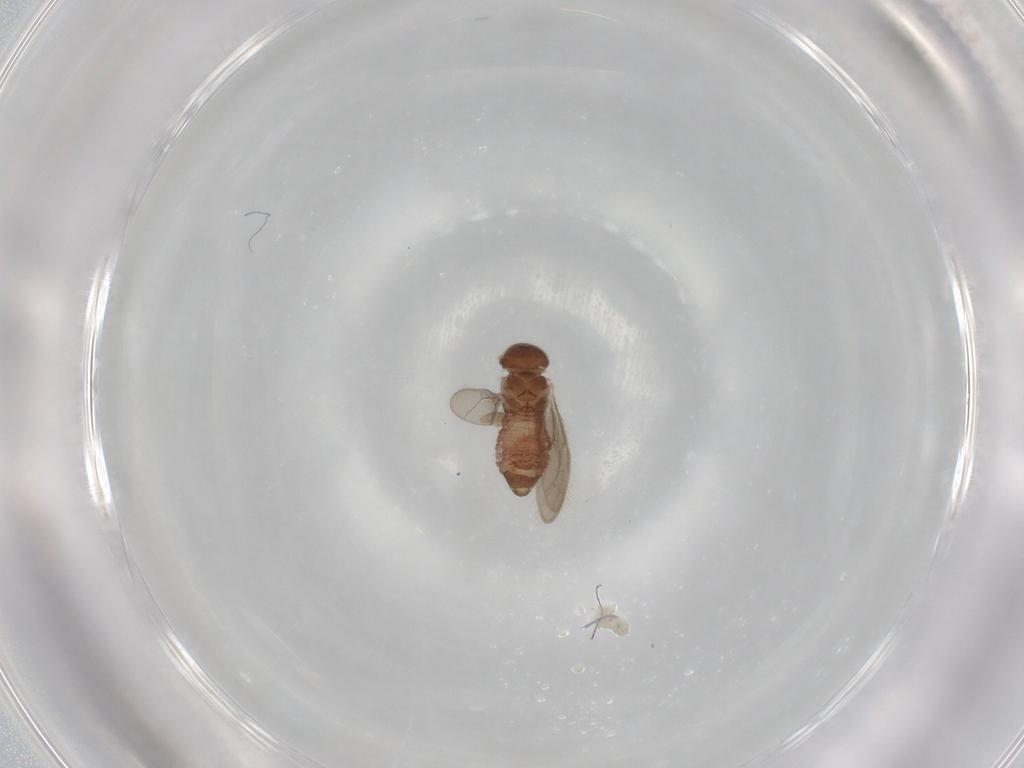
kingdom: Animalia
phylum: Arthropoda
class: Insecta
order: Psocodea
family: Archipsocidae
